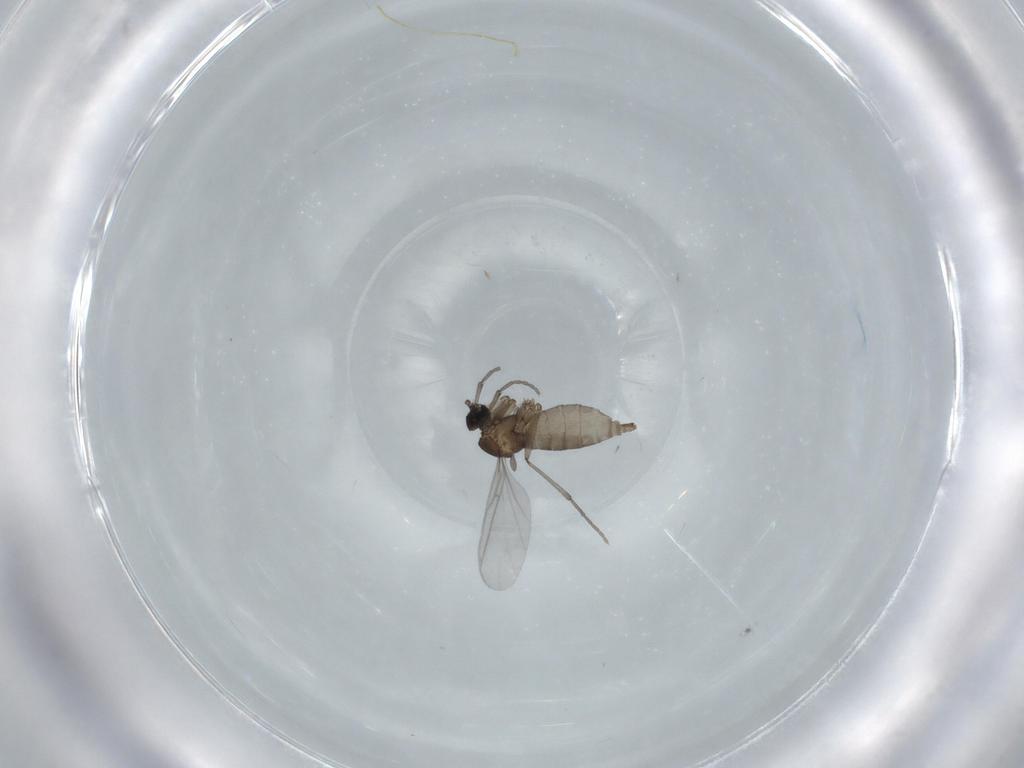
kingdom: Animalia
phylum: Arthropoda
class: Insecta
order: Diptera
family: Sciaridae
